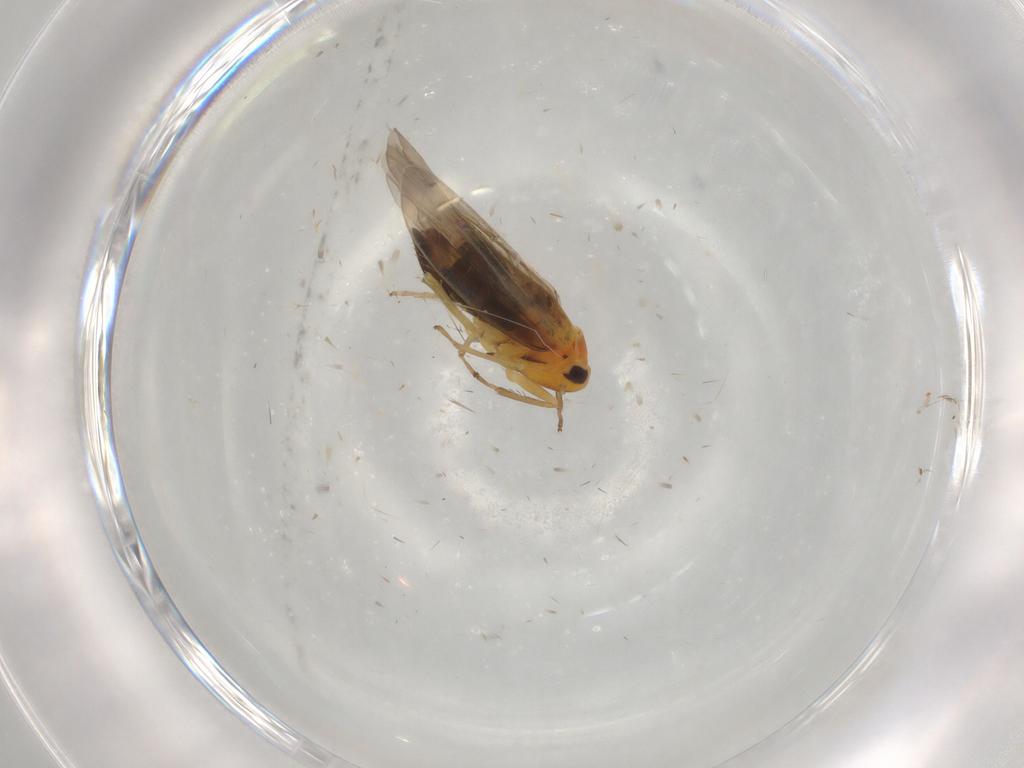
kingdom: Animalia
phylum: Arthropoda
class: Insecta
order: Hemiptera
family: Cicadellidae
